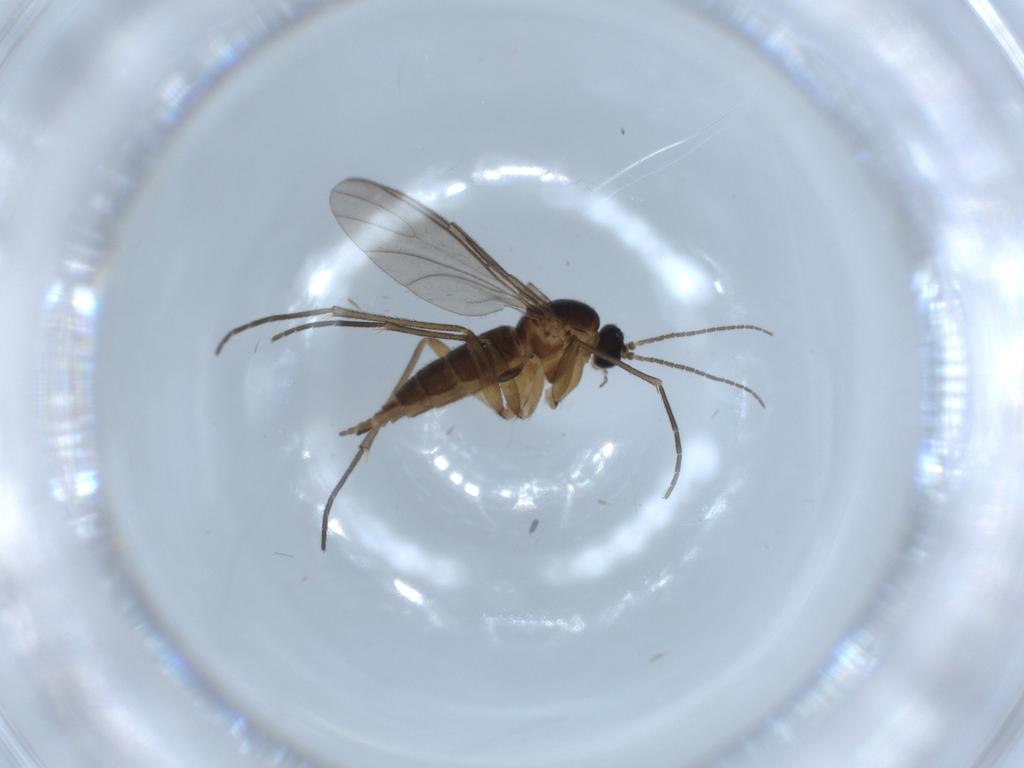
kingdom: Animalia
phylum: Arthropoda
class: Insecta
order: Diptera
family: Sciaridae
